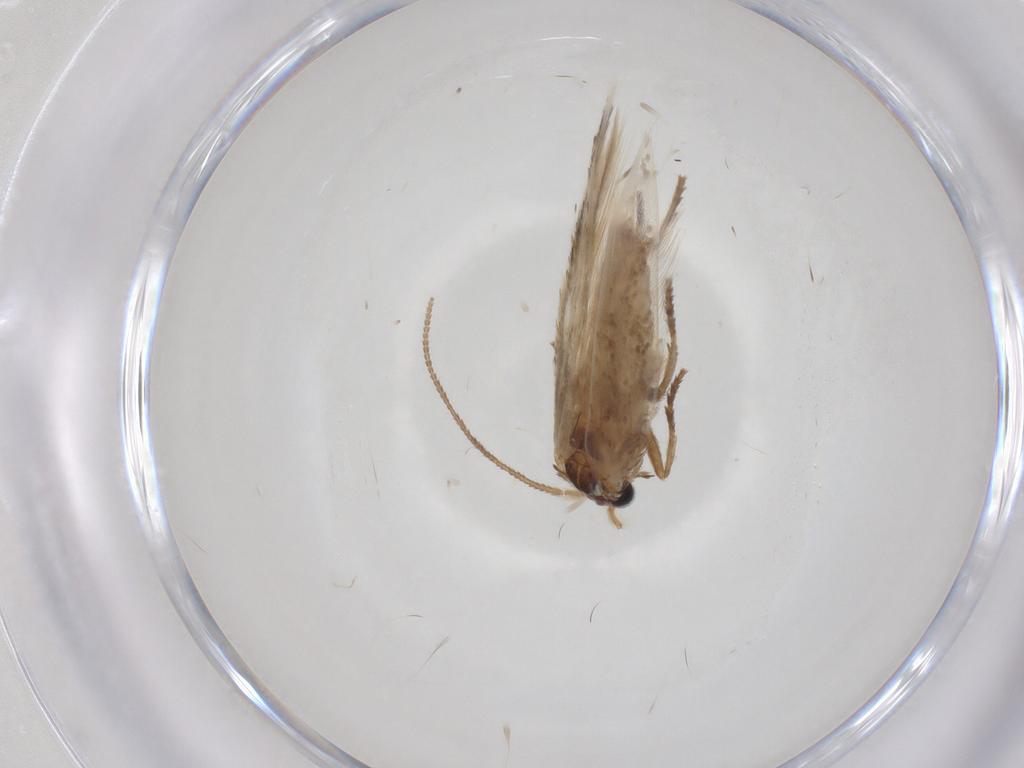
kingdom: Animalia
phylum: Arthropoda
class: Insecta
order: Lepidoptera
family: Gelechiidae
